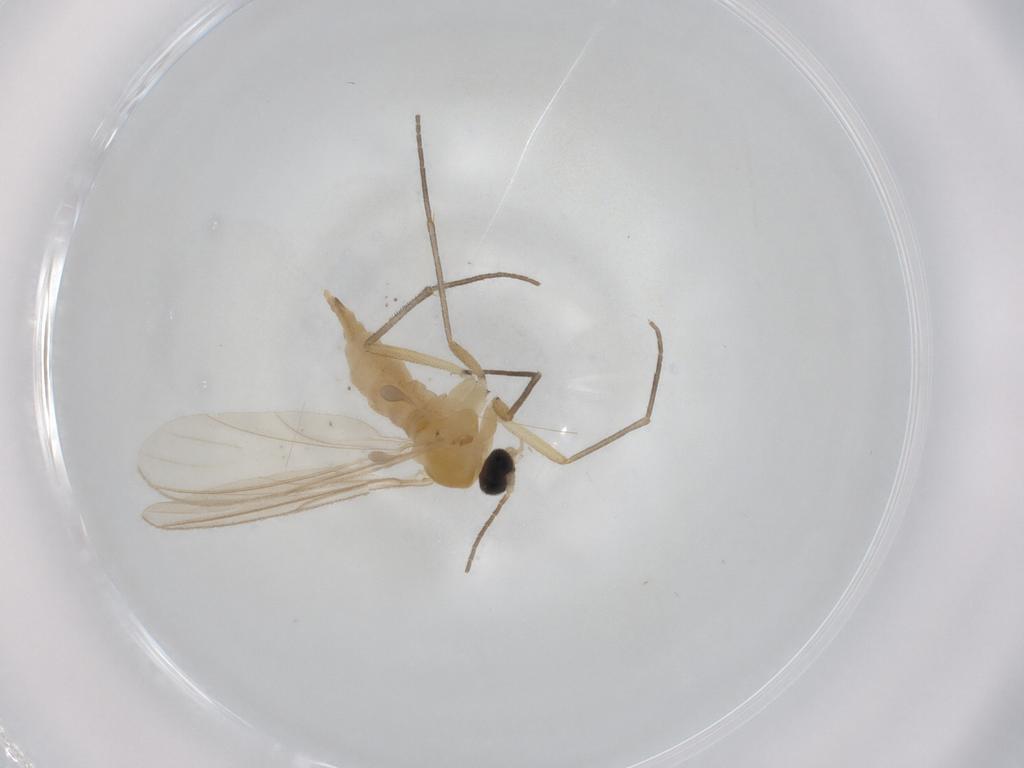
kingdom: Animalia
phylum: Arthropoda
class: Insecta
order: Diptera
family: Sciaridae
